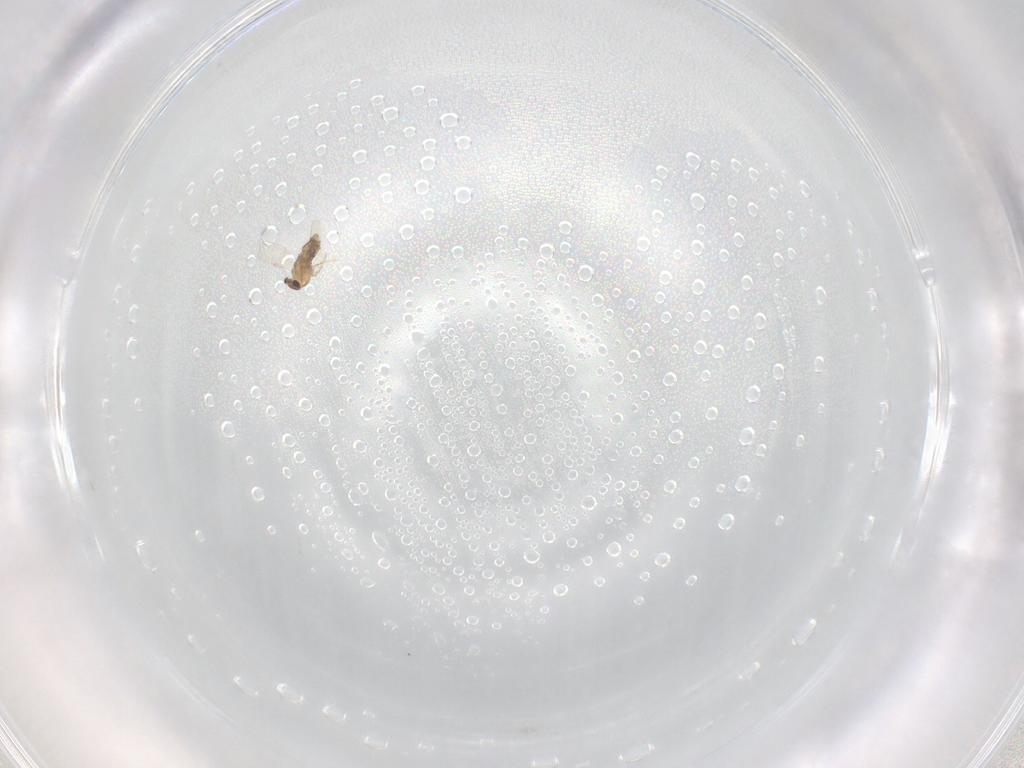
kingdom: Animalia
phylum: Arthropoda
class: Insecta
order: Diptera
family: Chironomidae
